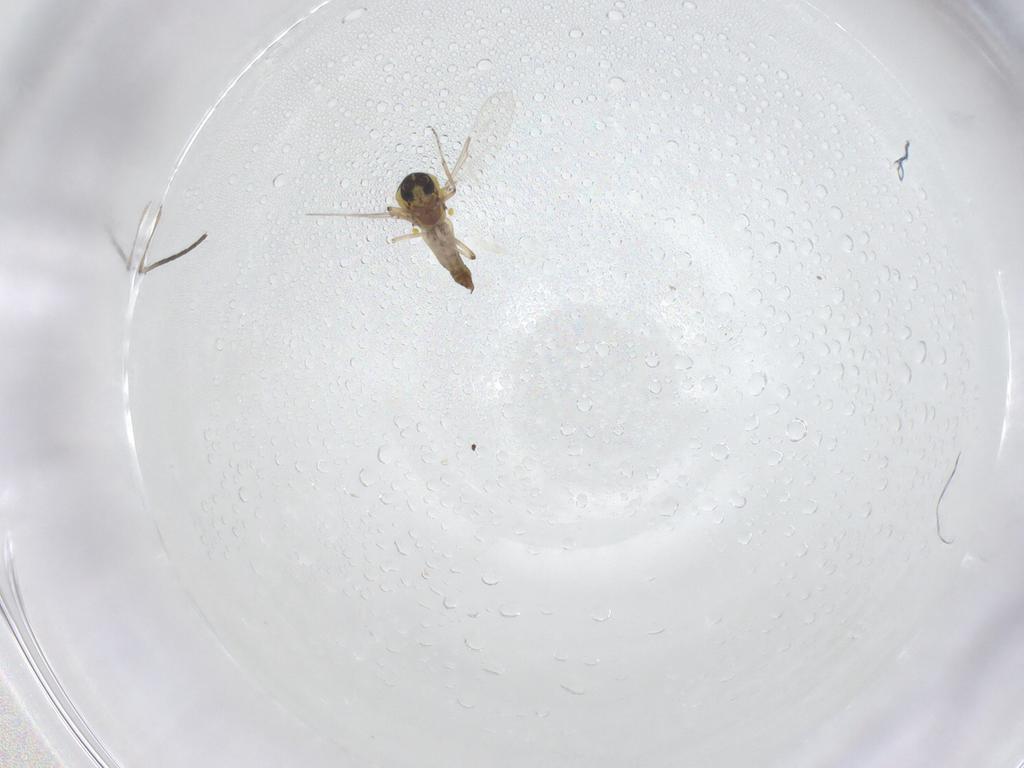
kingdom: Animalia
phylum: Arthropoda
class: Insecta
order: Diptera
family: Ceratopogonidae
